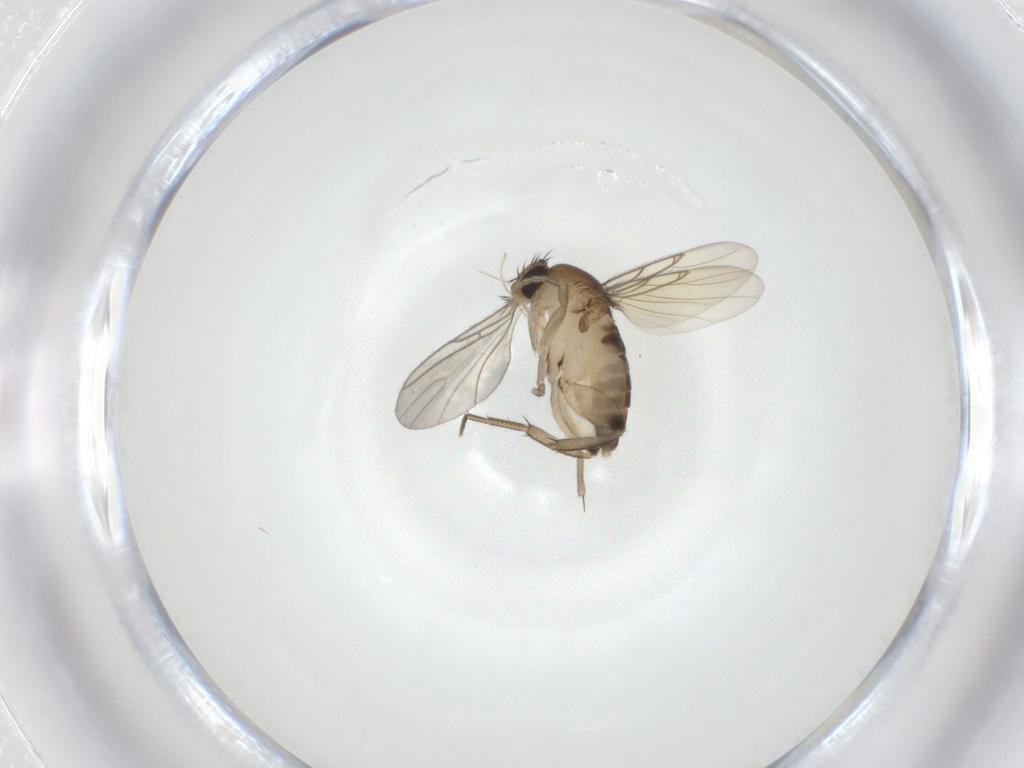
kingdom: Animalia
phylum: Arthropoda
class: Insecta
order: Diptera
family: Phoridae
